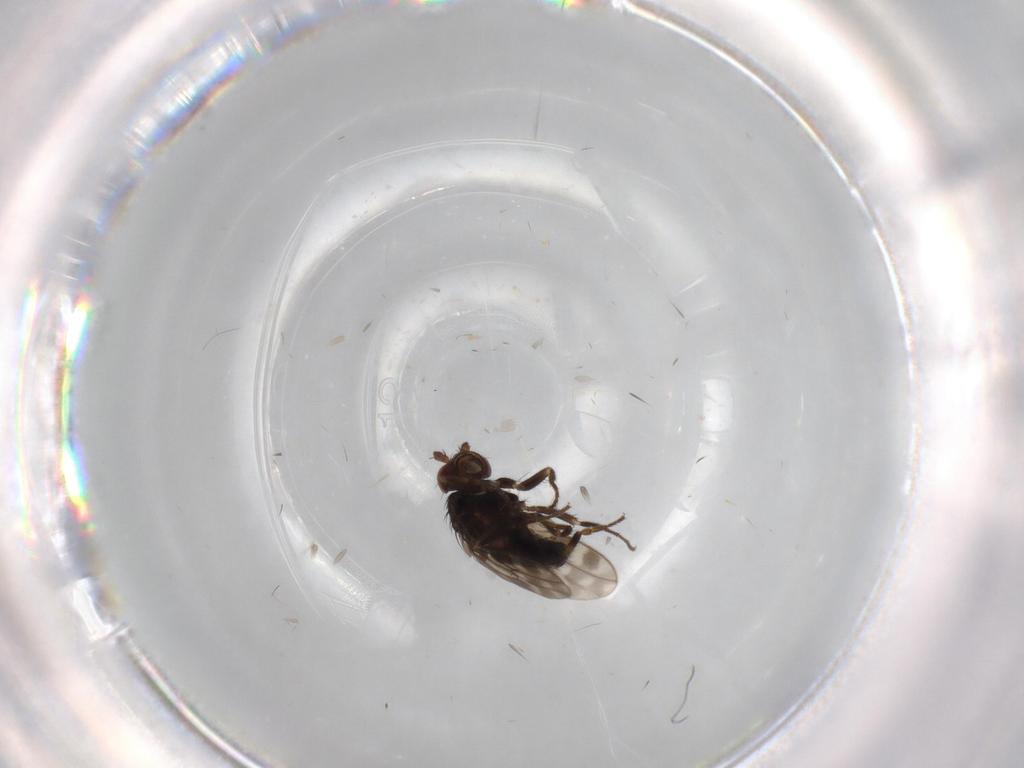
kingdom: Animalia
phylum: Arthropoda
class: Insecta
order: Diptera
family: Sphaeroceridae
